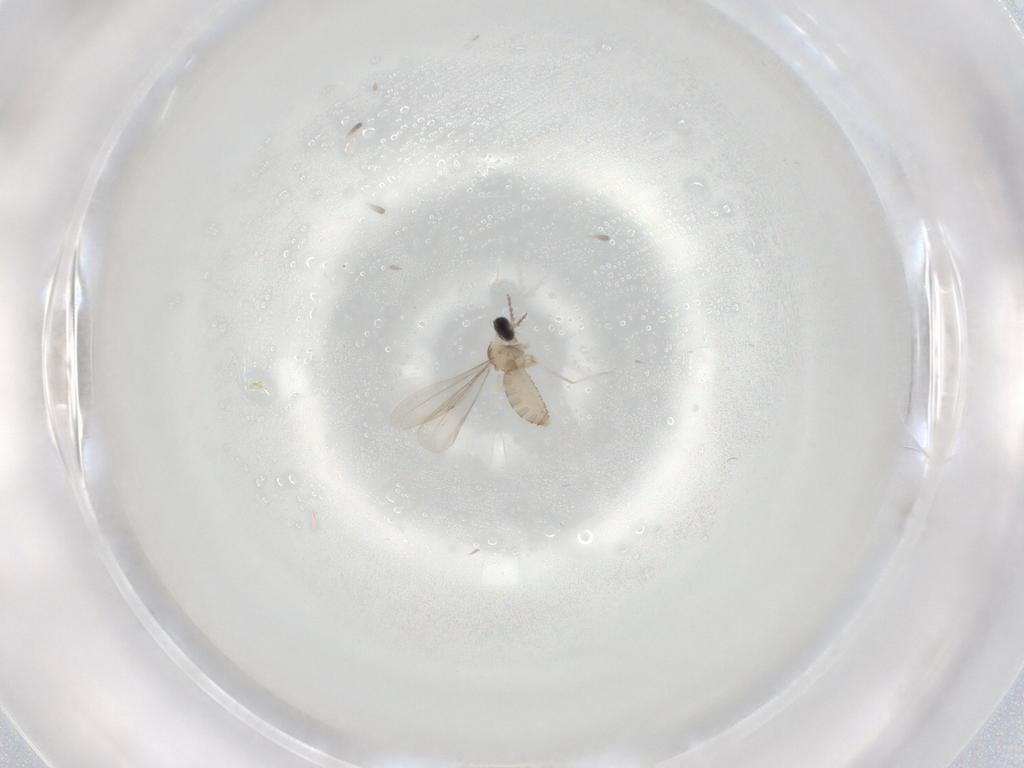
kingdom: Animalia
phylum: Arthropoda
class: Insecta
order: Diptera
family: Cecidomyiidae
